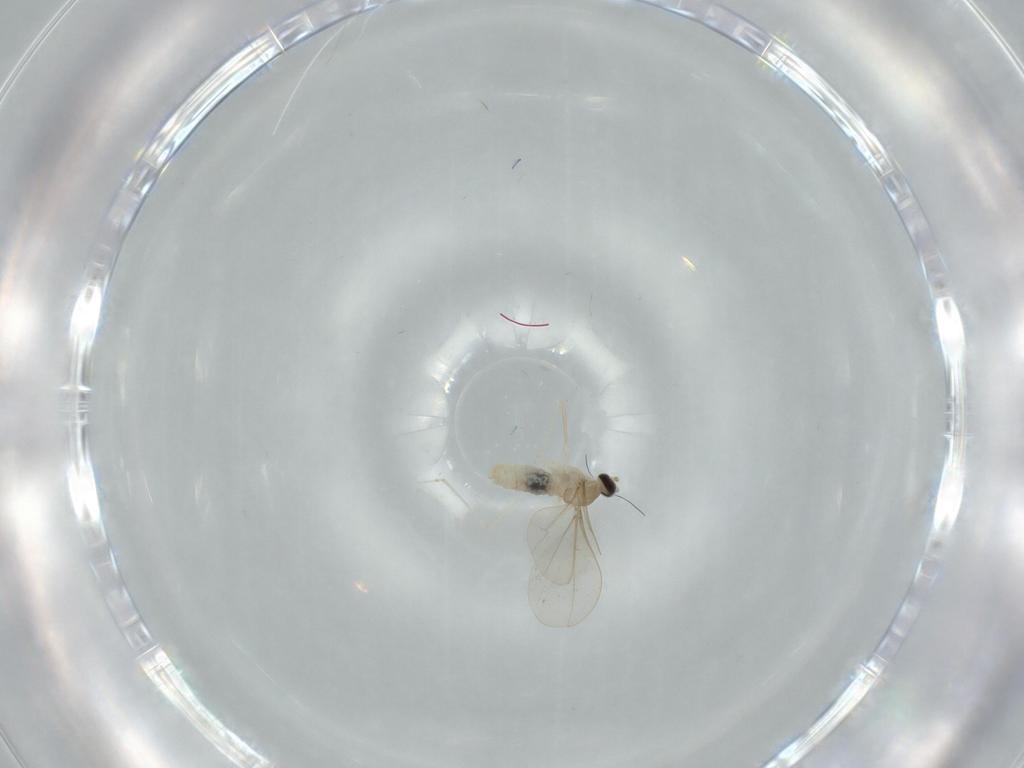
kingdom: Animalia
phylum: Arthropoda
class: Insecta
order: Diptera
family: Cecidomyiidae
